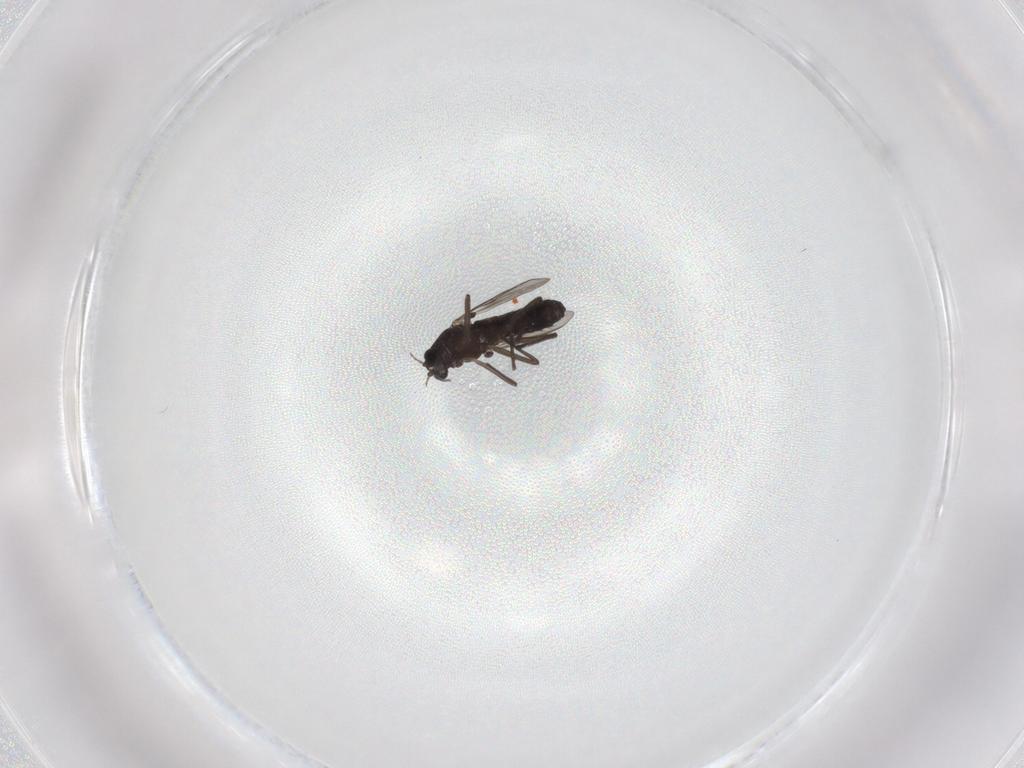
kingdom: Animalia
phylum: Arthropoda
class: Insecta
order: Diptera
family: Chironomidae
